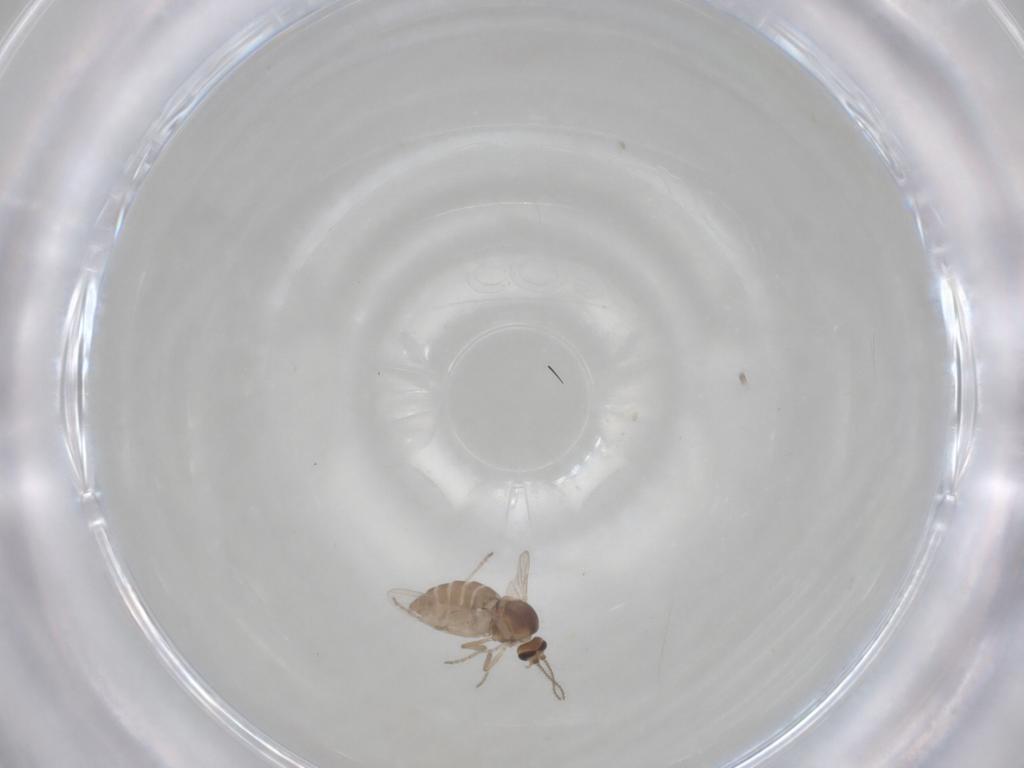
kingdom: Animalia
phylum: Arthropoda
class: Insecta
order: Diptera
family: Ceratopogonidae
